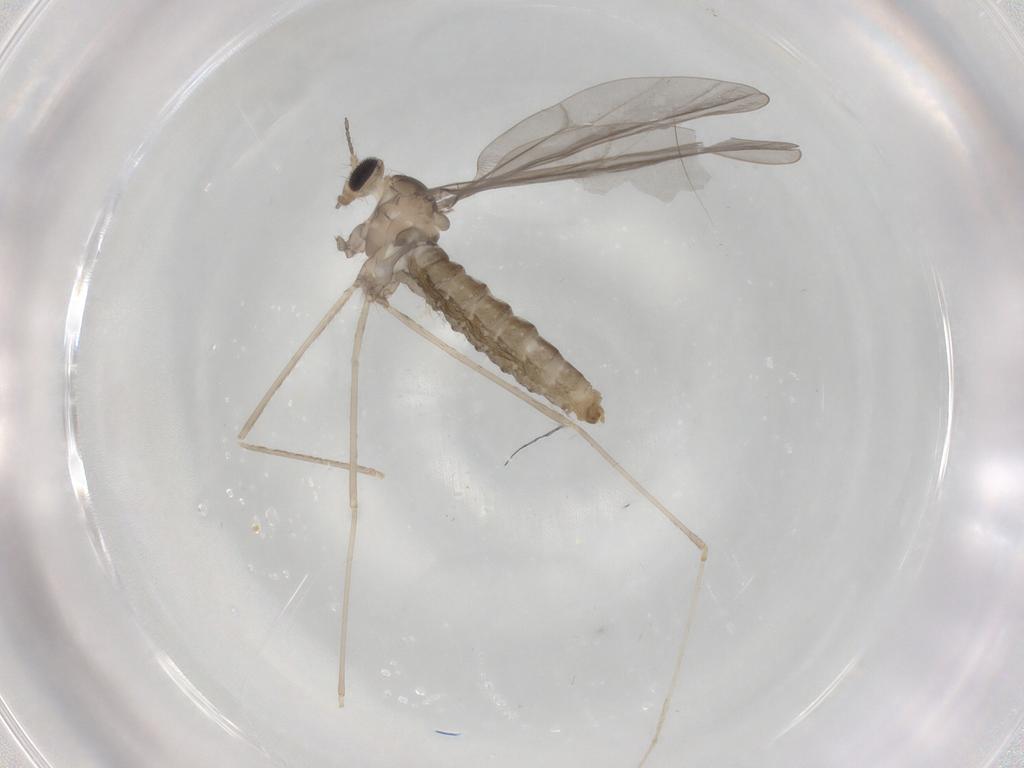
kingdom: Animalia
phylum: Arthropoda
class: Insecta
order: Diptera
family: Cecidomyiidae
